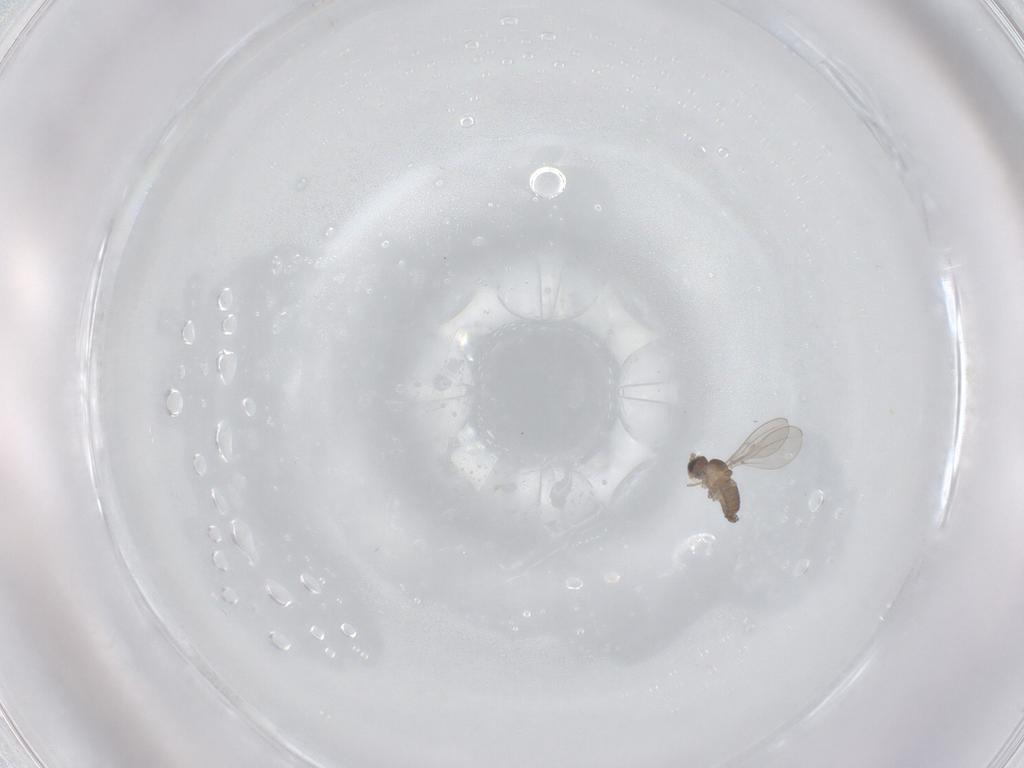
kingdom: Animalia
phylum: Arthropoda
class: Insecta
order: Diptera
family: Cecidomyiidae
